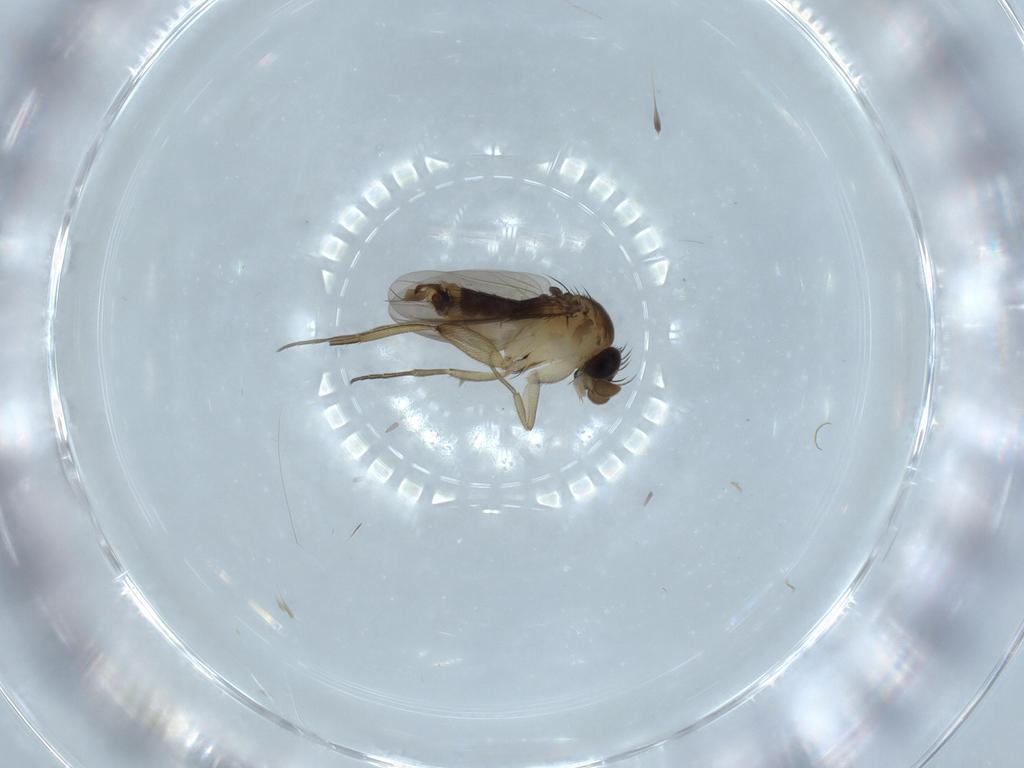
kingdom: Animalia
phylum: Arthropoda
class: Insecta
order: Diptera
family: Phoridae
